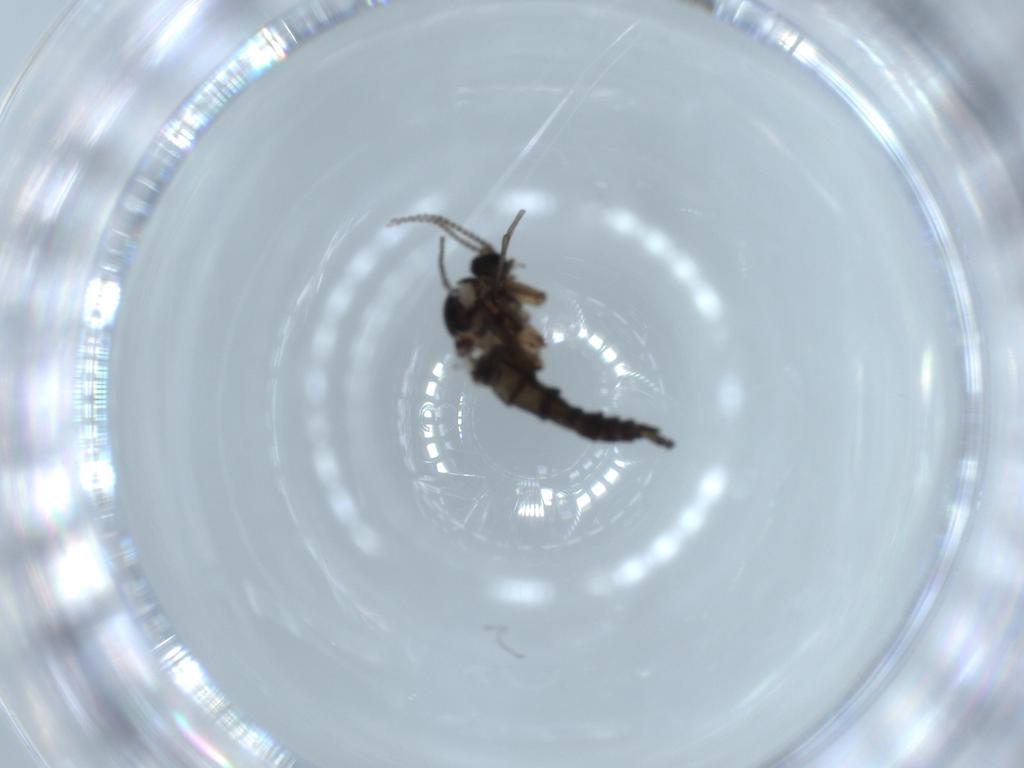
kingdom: Animalia
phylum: Arthropoda
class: Insecta
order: Diptera
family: Sciaridae
